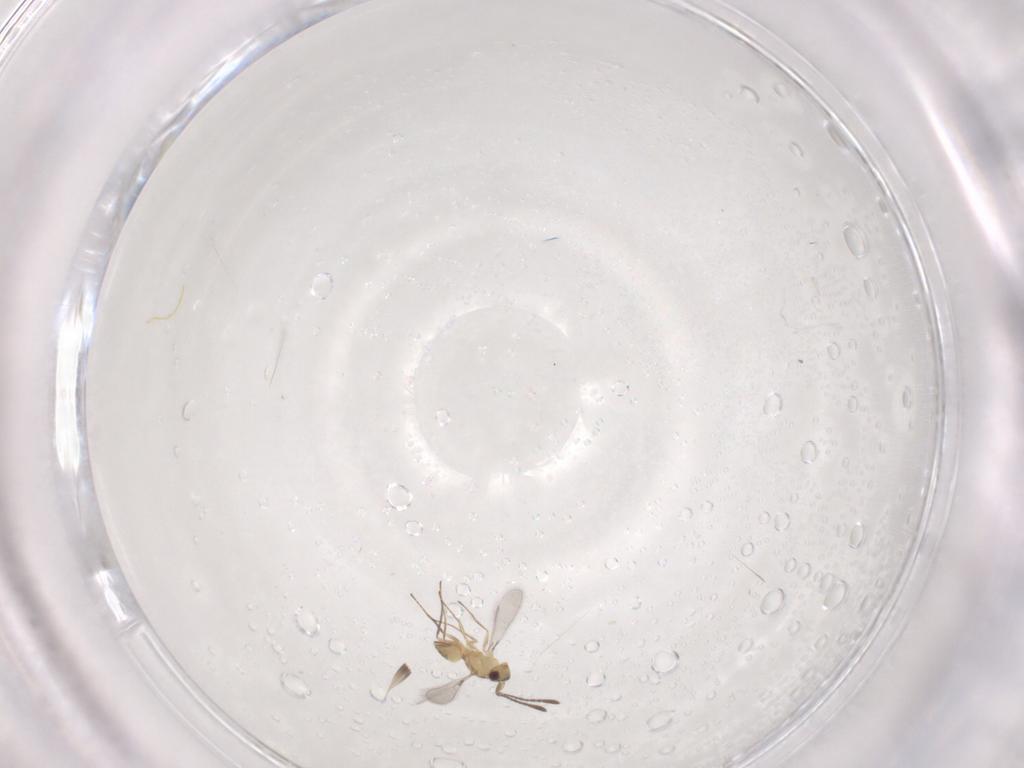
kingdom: Animalia
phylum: Arthropoda
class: Insecta
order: Hymenoptera
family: Mymaridae
